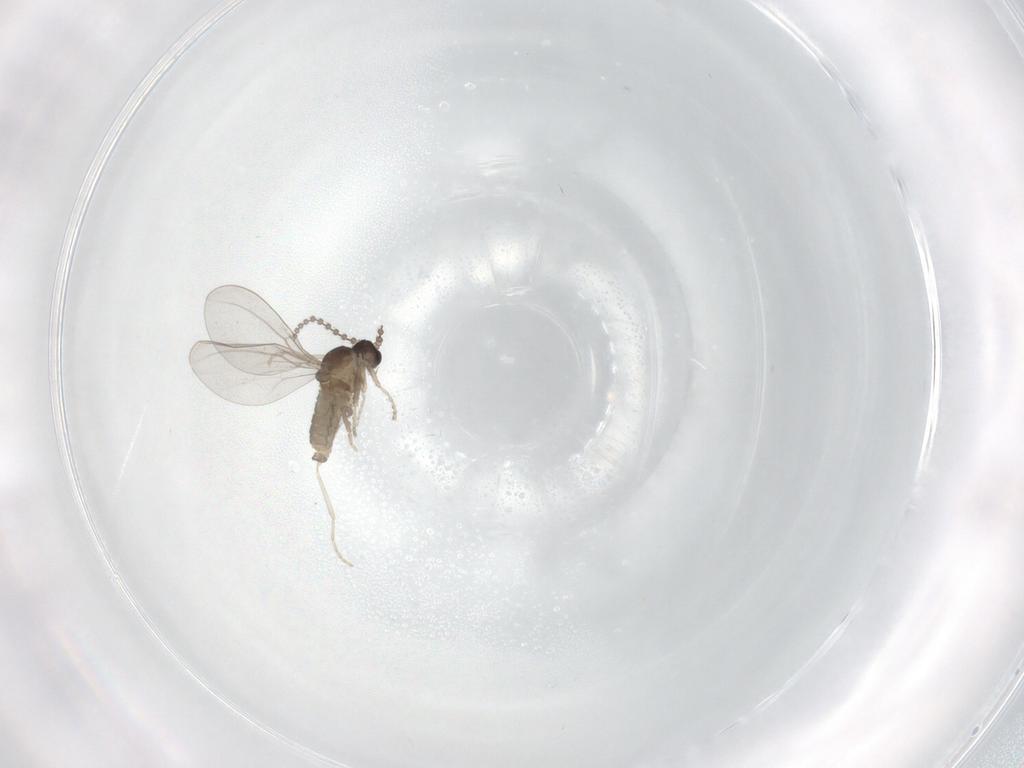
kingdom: Animalia
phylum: Arthropoda
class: Insecta
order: Diptera
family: Cecidomyiidae
